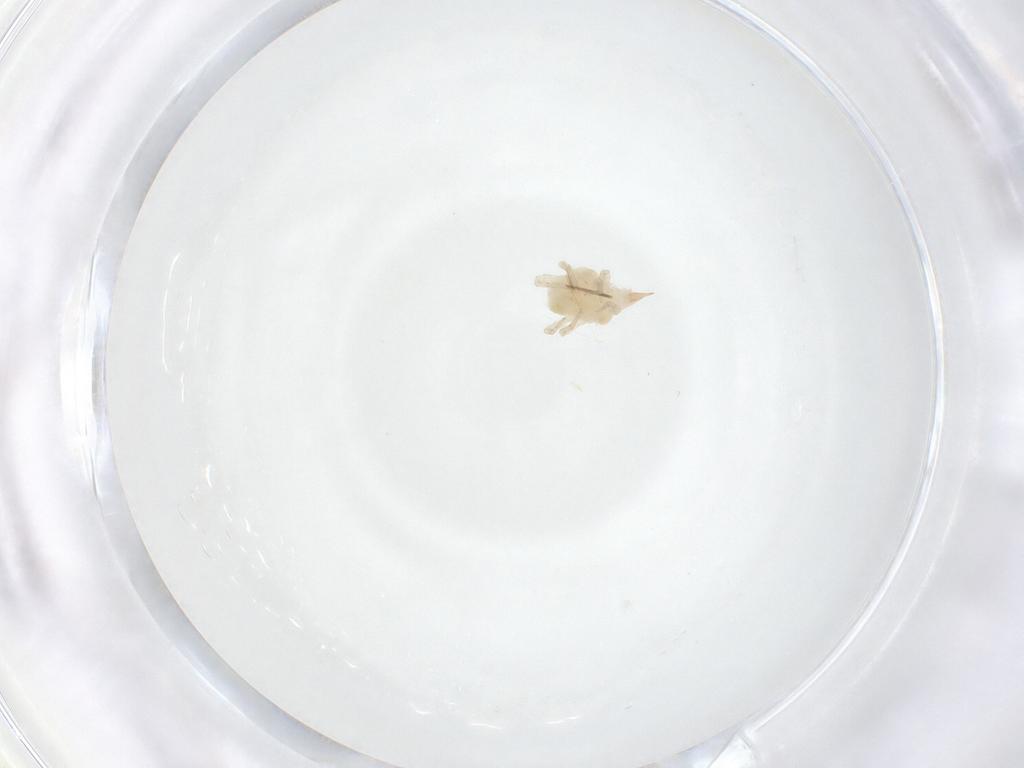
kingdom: Animalia
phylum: Arthropoda
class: Arachnida
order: Trombidiformes
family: Bdellidae
